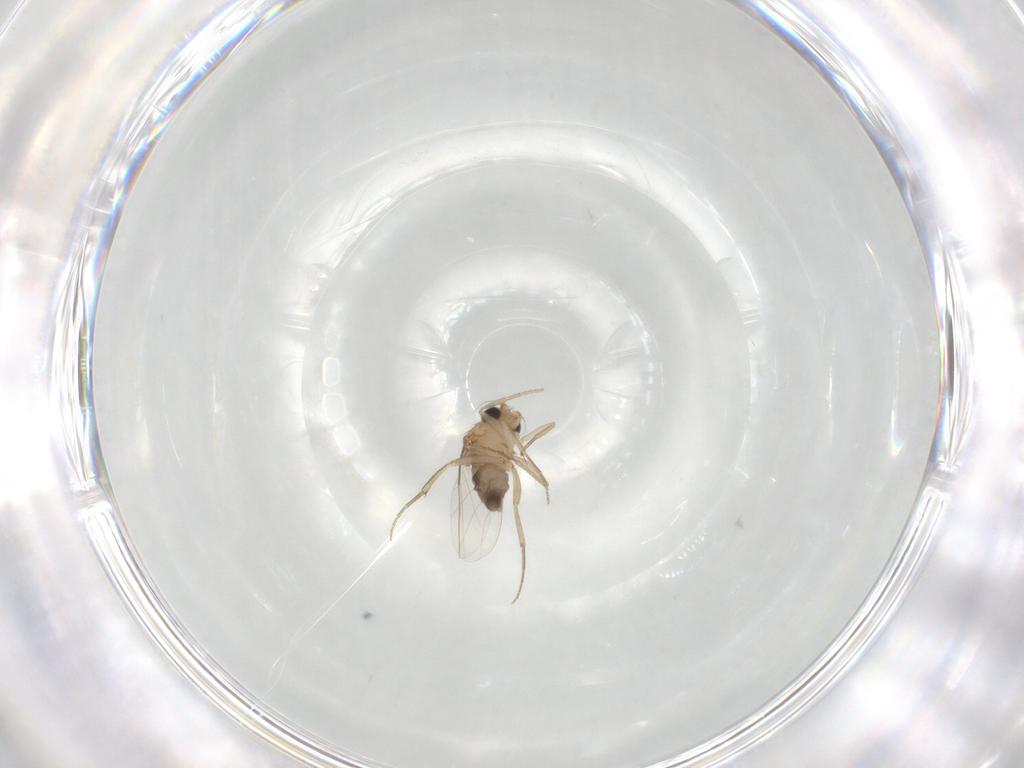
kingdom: Animalia
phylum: Arthropoda
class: Insecta
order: Diptera
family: Phoridae
